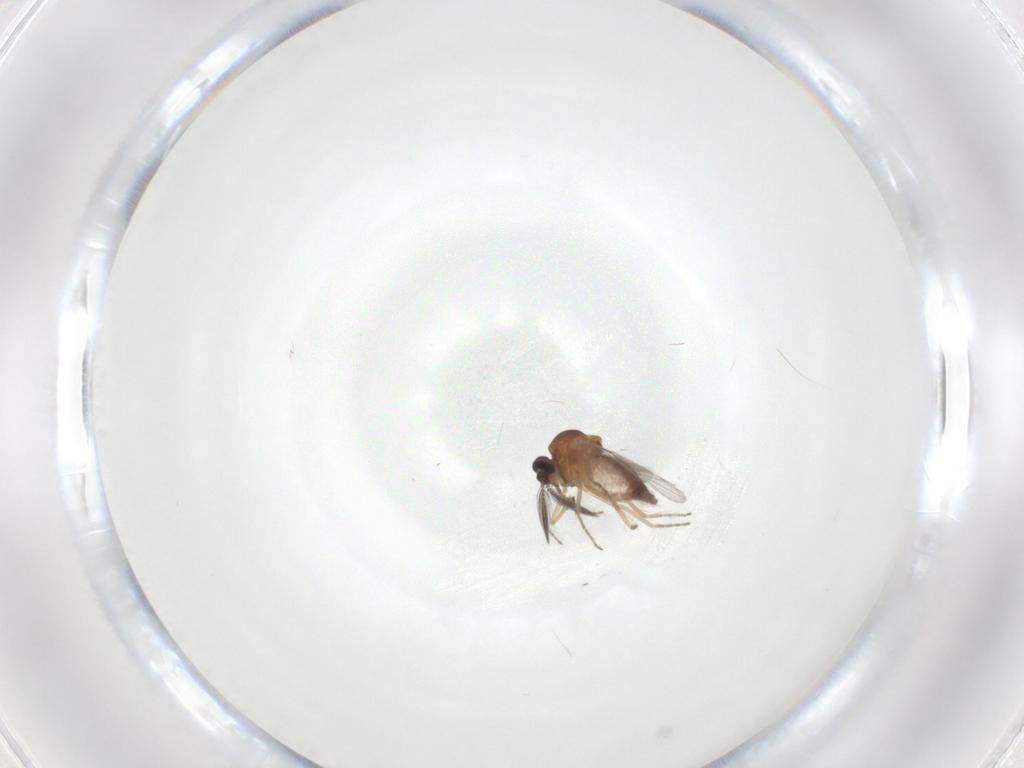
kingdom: Animalia
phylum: Arthropoda
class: Insecta
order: Diptera
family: Ceratopogonidae
